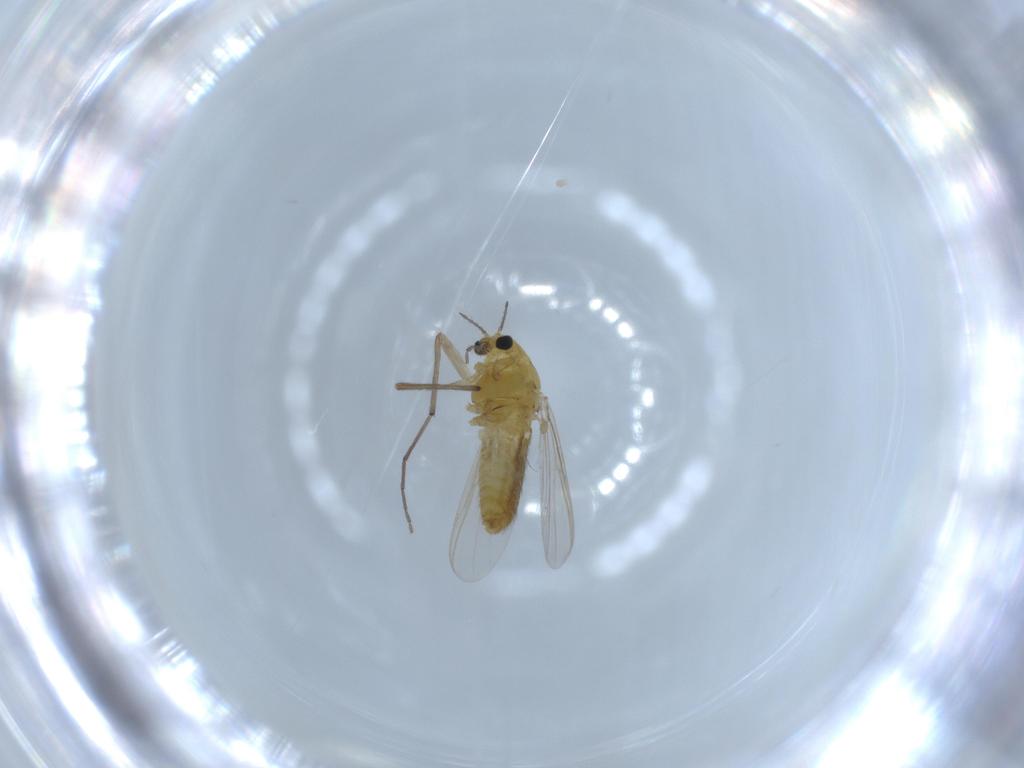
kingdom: Animalia
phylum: Arthropoda
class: Insecta
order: Diptera
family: Chironomidae
